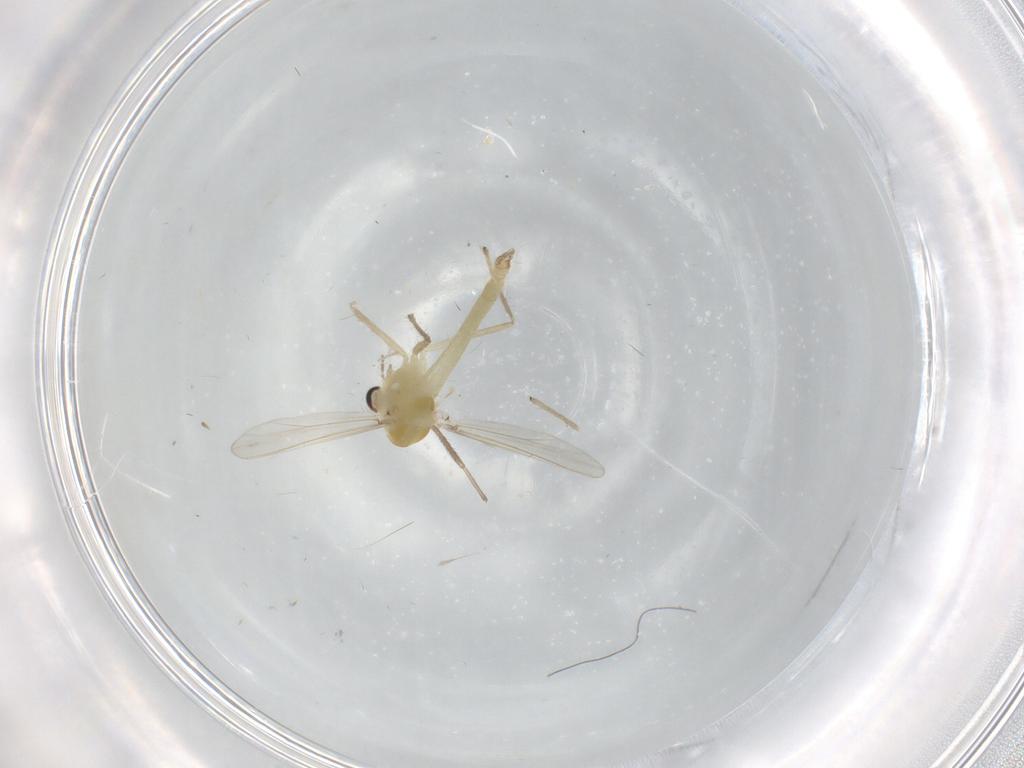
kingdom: Animalia
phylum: Arthropoda
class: Insecta
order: Diptera
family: Chironomidae
